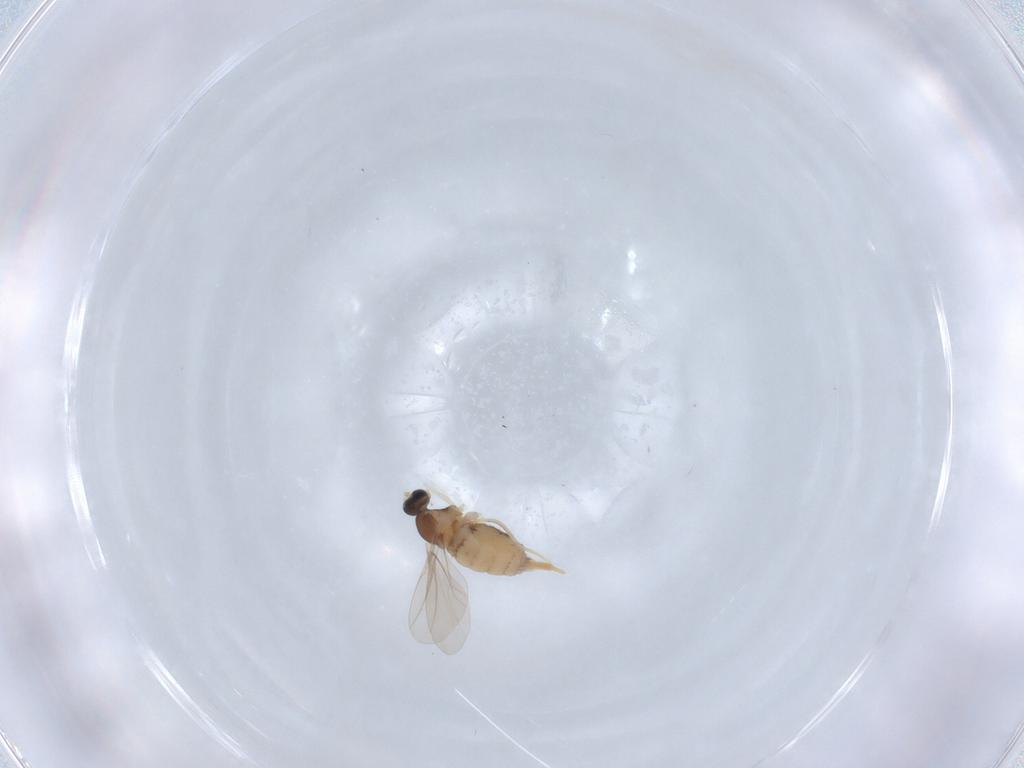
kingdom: Animalia
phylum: Arthropoda
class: Insecta
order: Diptera
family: Cecidomyiidae
